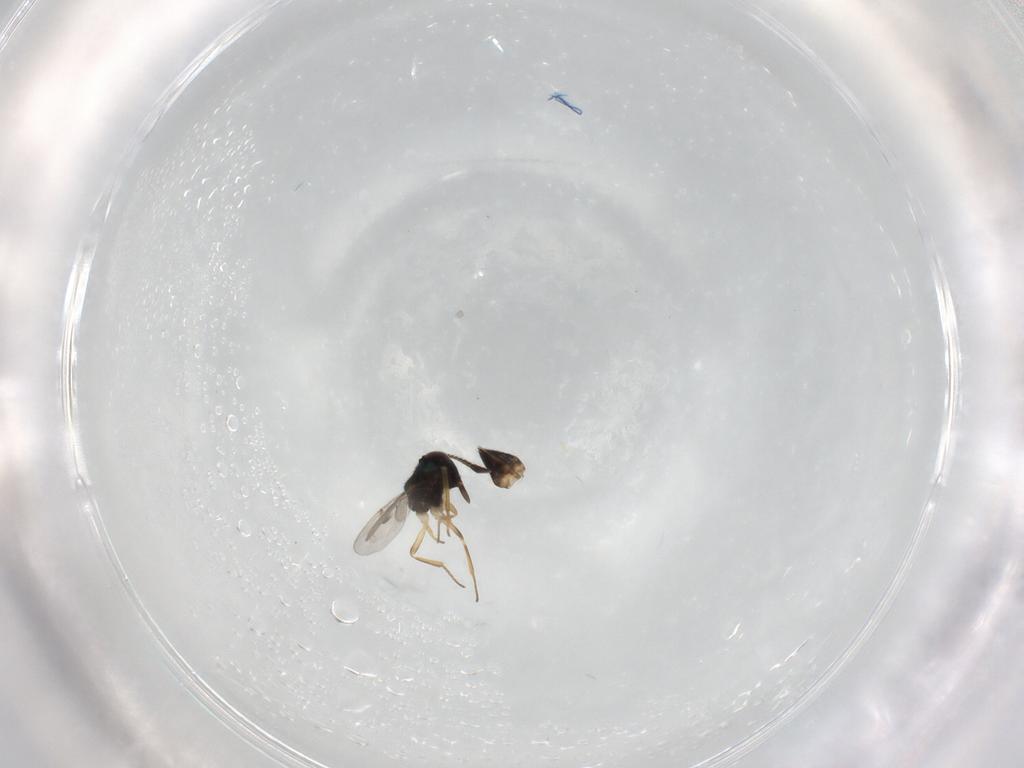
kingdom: Animalia
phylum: Arthropoda
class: Insecta
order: Hymenoptera
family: Encyrtidae
